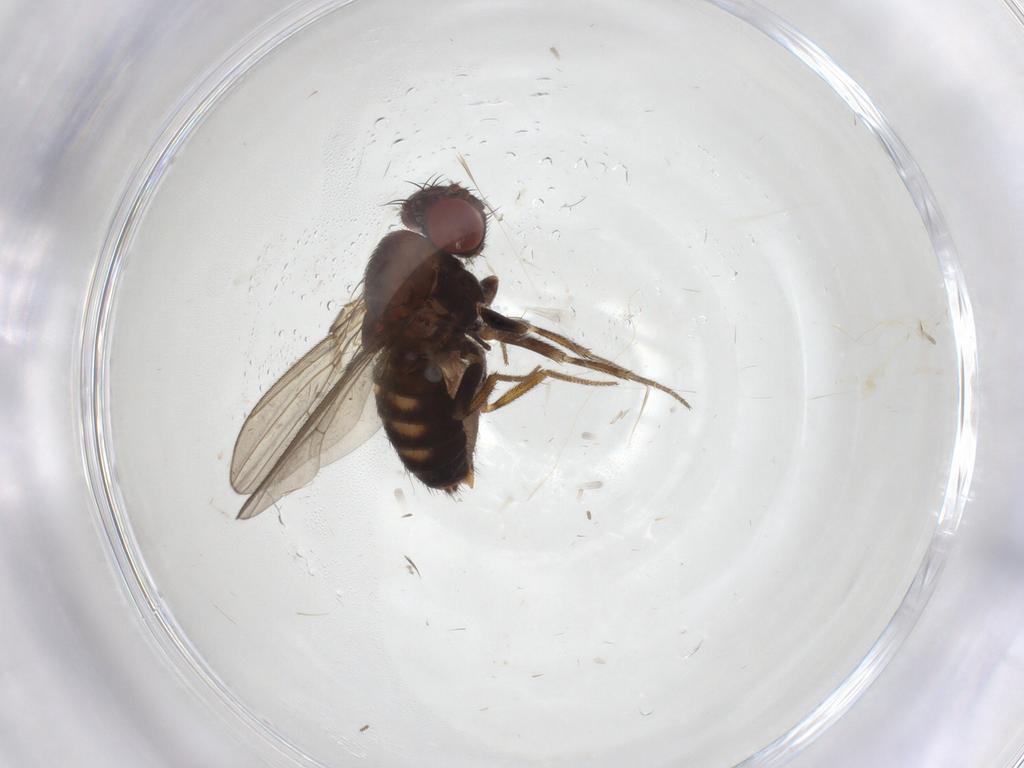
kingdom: Animalia
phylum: Arthropoda
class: Insecta
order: Diptera
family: Drosophilidae
